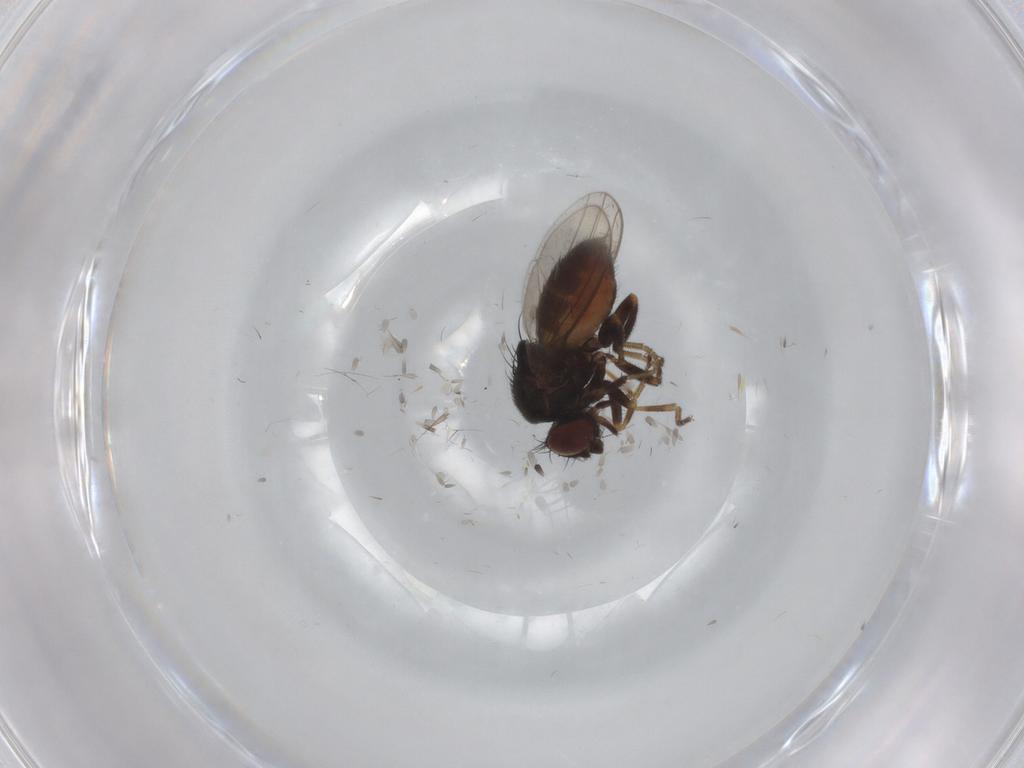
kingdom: Animalia
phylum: Arthropoda
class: Insecta
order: Diptera
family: Milichiidae
